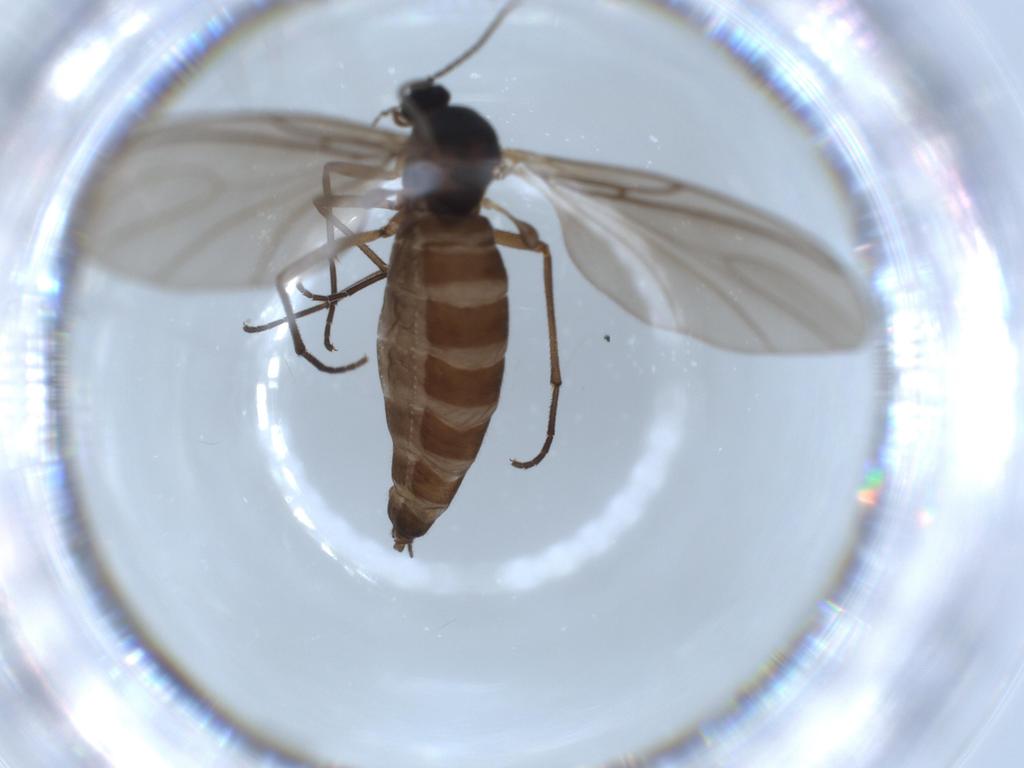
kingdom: Animalia
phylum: Arthropoda
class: Insecta
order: Diptera
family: Sciaridae
